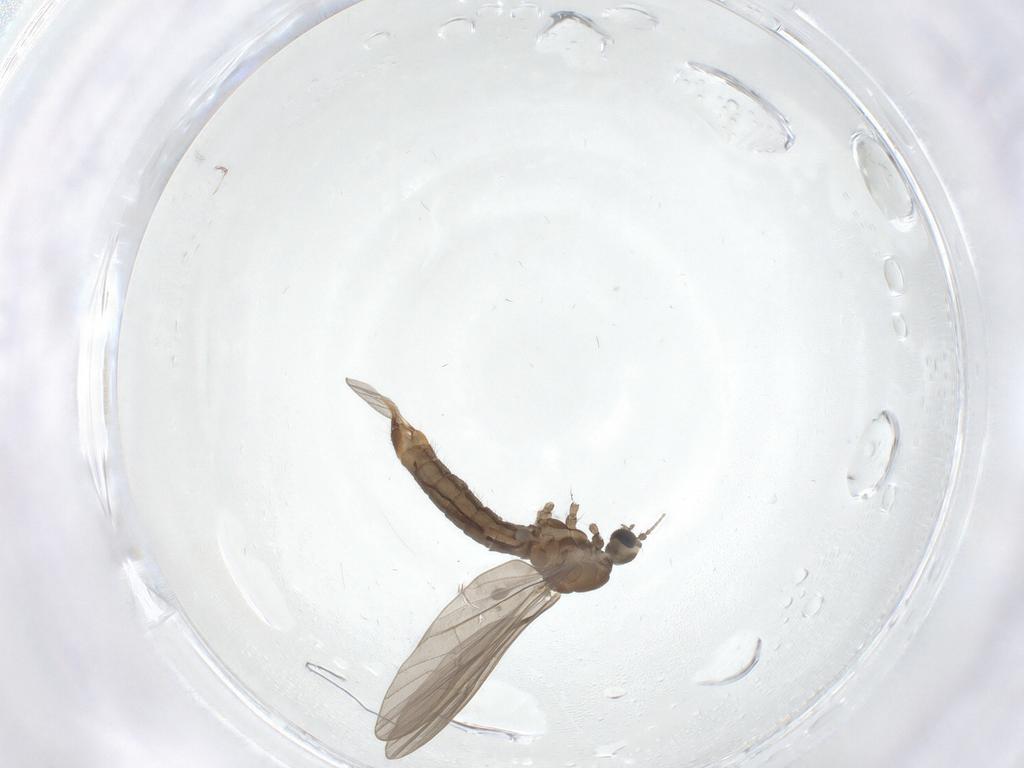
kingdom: Animalia
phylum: Arthropoda
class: Insecta
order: Diptera
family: Limoniidae
